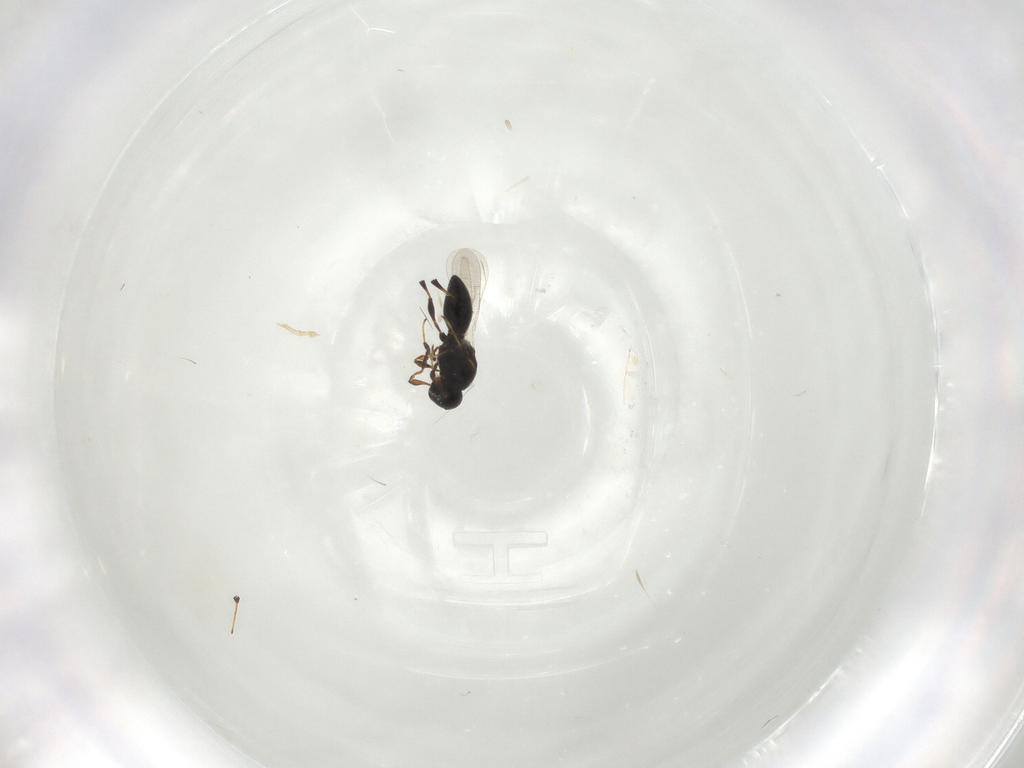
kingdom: Animalia
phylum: Arthropoda
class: Insecta
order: Hymenoptera
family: Platygastridae
